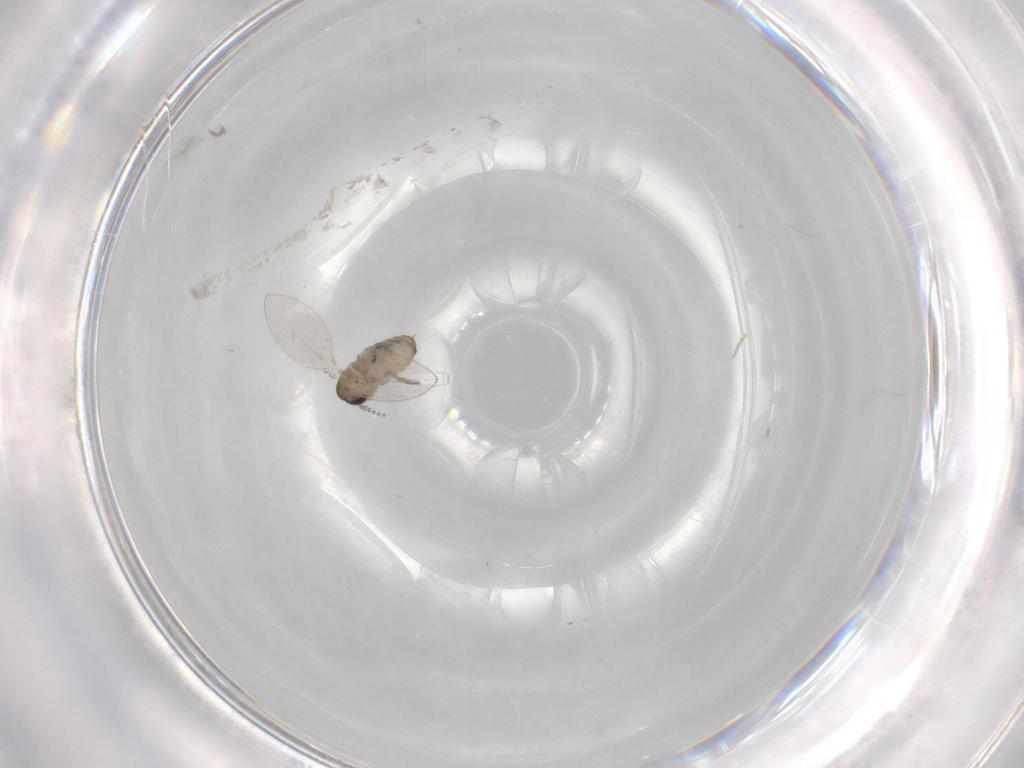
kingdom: Animalia
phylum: Arthropoda
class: Insecta
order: Diptera
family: Psychodidae
